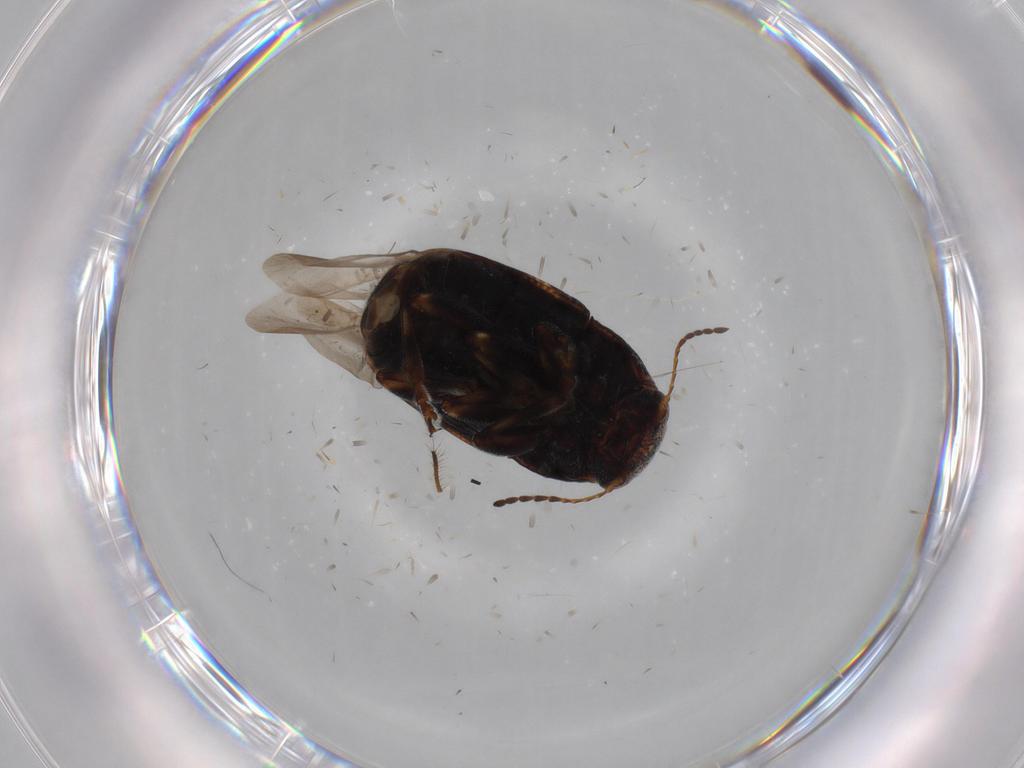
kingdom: Animalia
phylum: Arthropoda
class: Insecta
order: Coleoptera
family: Chrysomelidae
